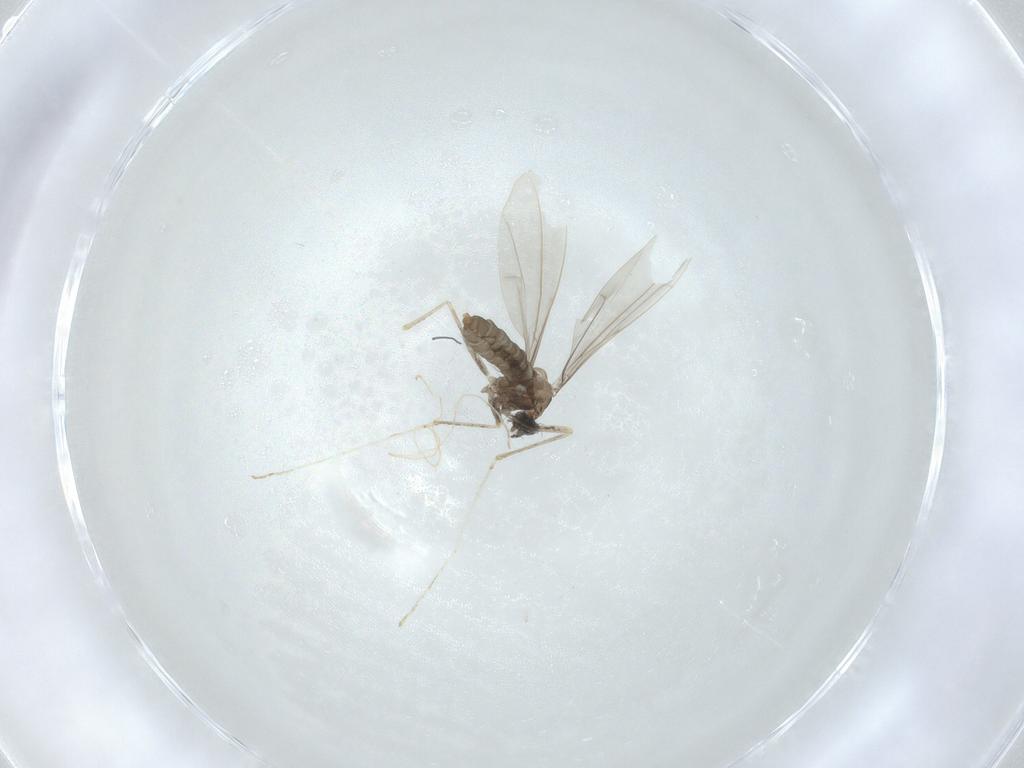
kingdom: Animalia
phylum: Arthropoda
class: Insecta
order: Diptera
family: Cecidomyiidae
